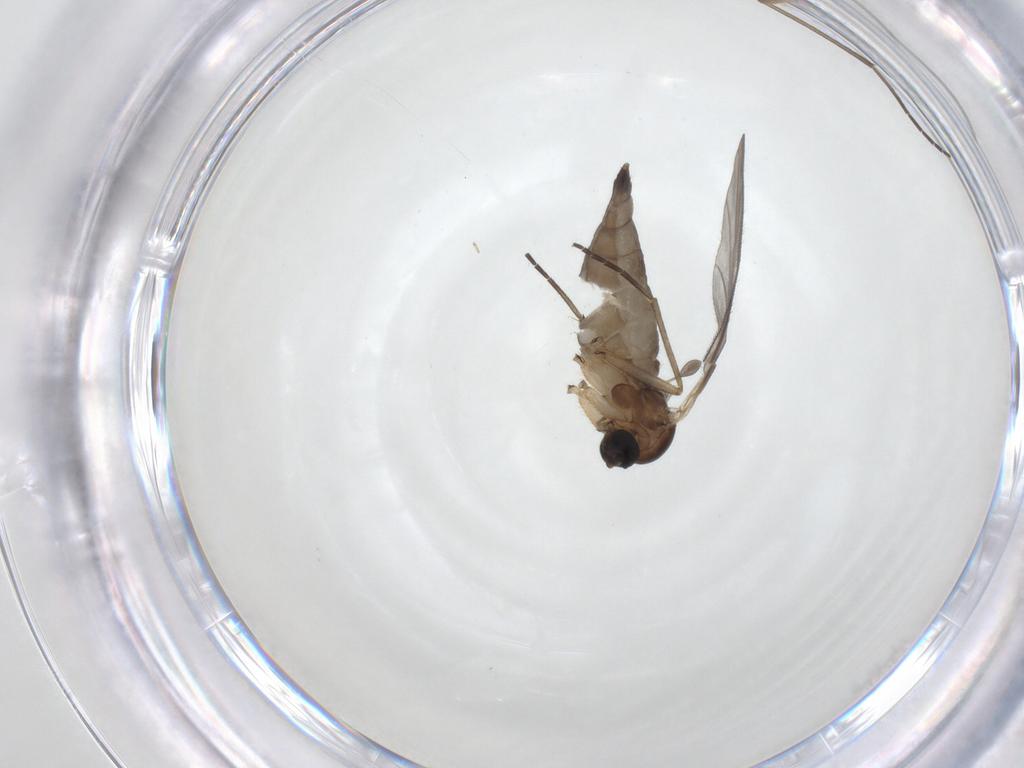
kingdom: Animalia
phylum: Arthropoda
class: Insecta
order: Diptera
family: Sciaridae
